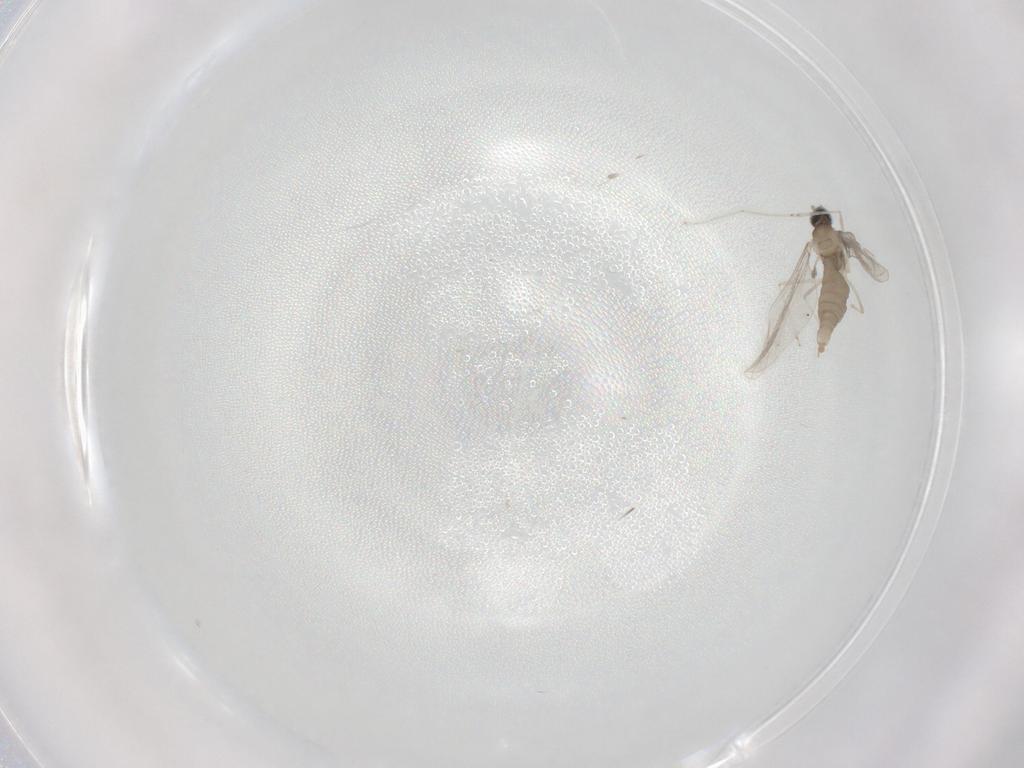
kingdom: Animalia
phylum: Arthropoda
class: Insecta
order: Diptera
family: Cecidomyiidae
